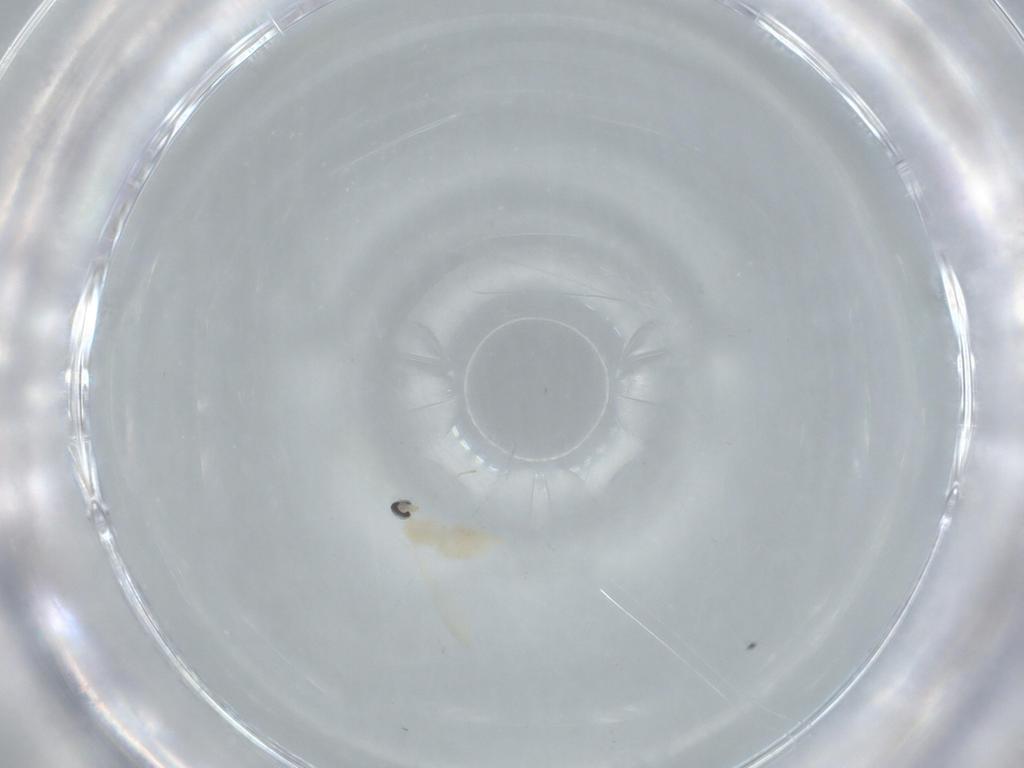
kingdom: Animalia
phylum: Arthropoda
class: Insecta
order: Diptera
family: Cecidomyiidae
